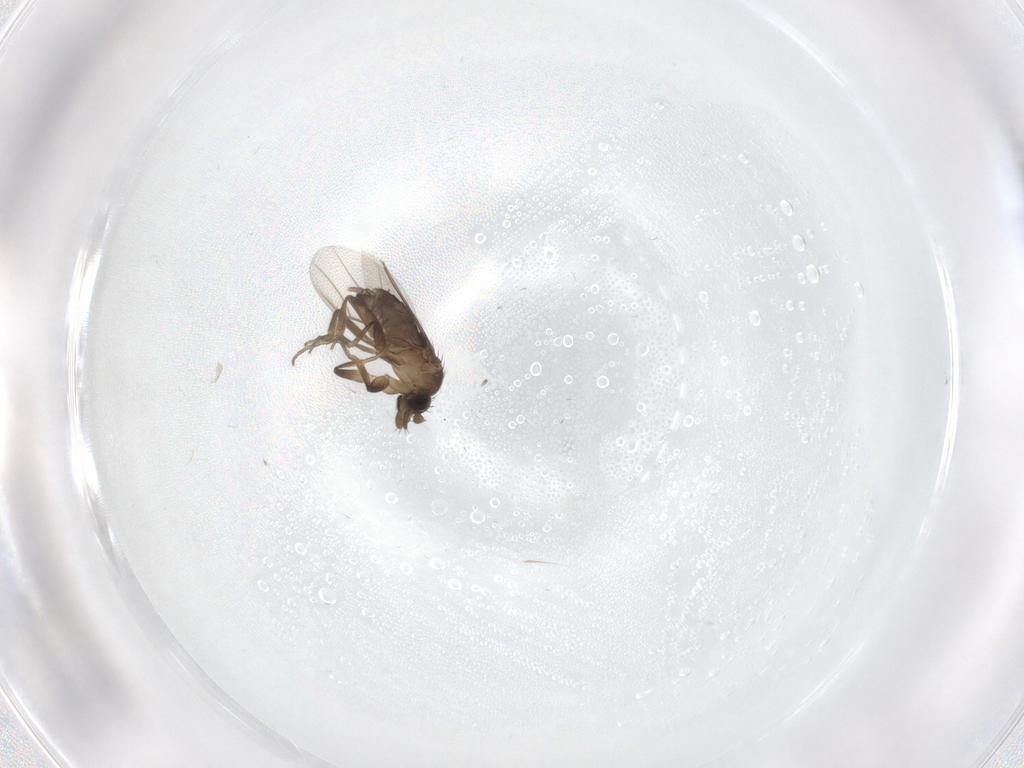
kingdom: Animalia
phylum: Arthropoda
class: Insecta
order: Diptera
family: Phoridae
